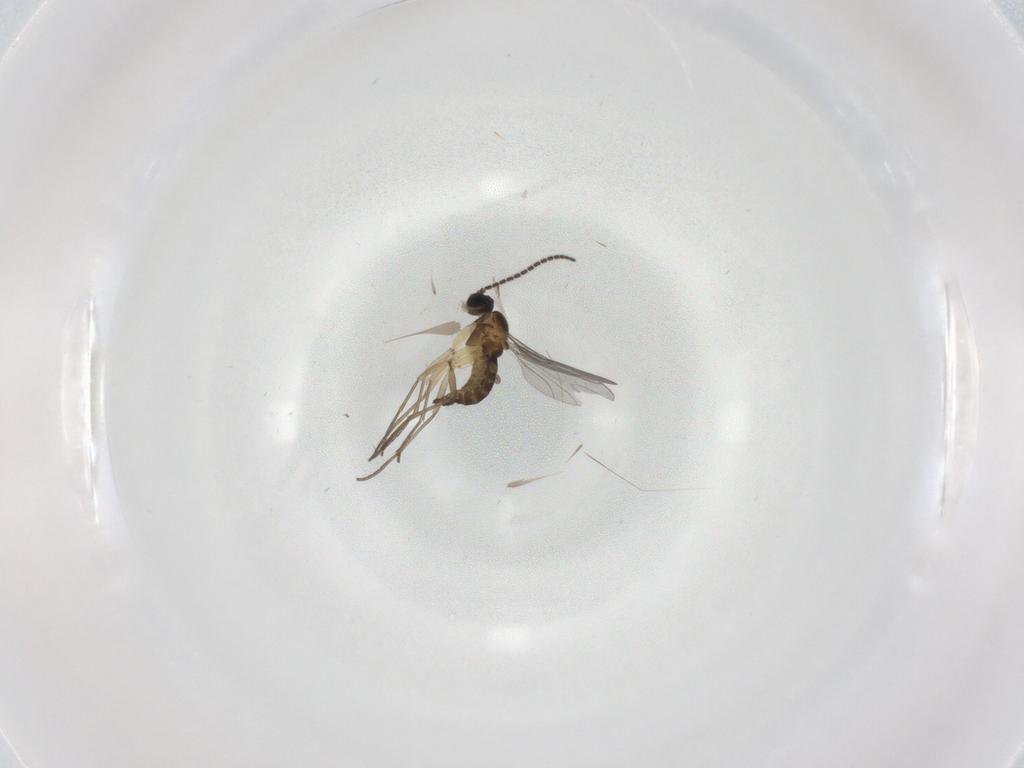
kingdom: Animalia
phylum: Arthropoda
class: Insecta
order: Diptera
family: Sciaridae
